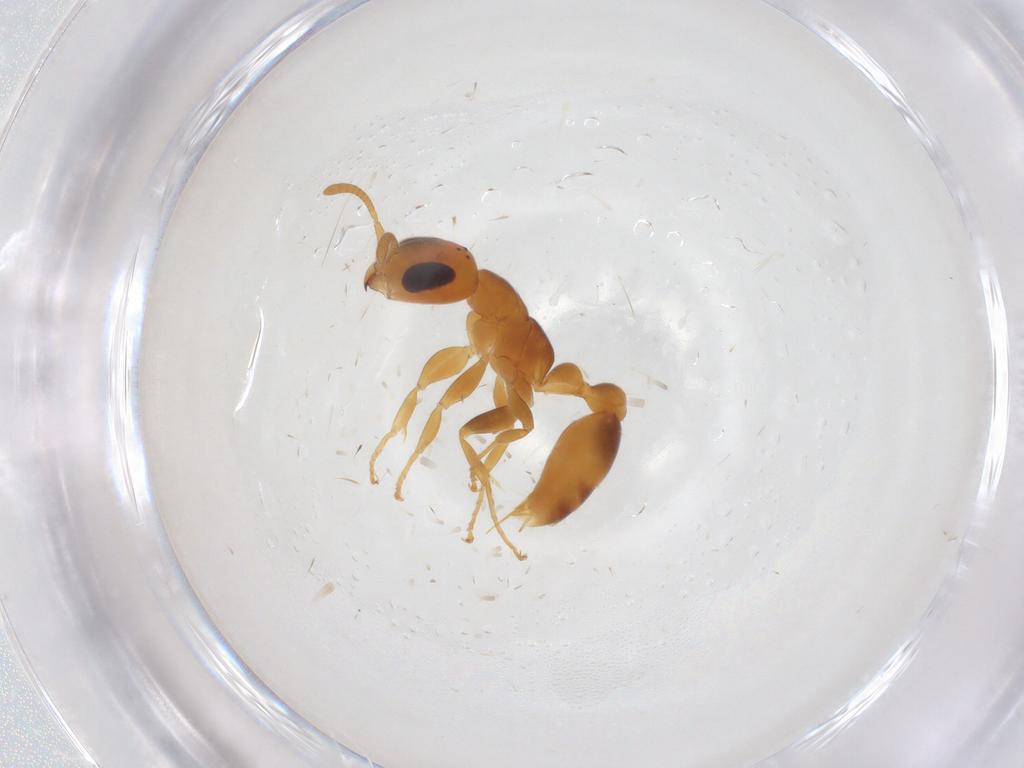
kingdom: Animalia
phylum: Arthropoda
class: Insecta
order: Hymenoptera
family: Formicidae
